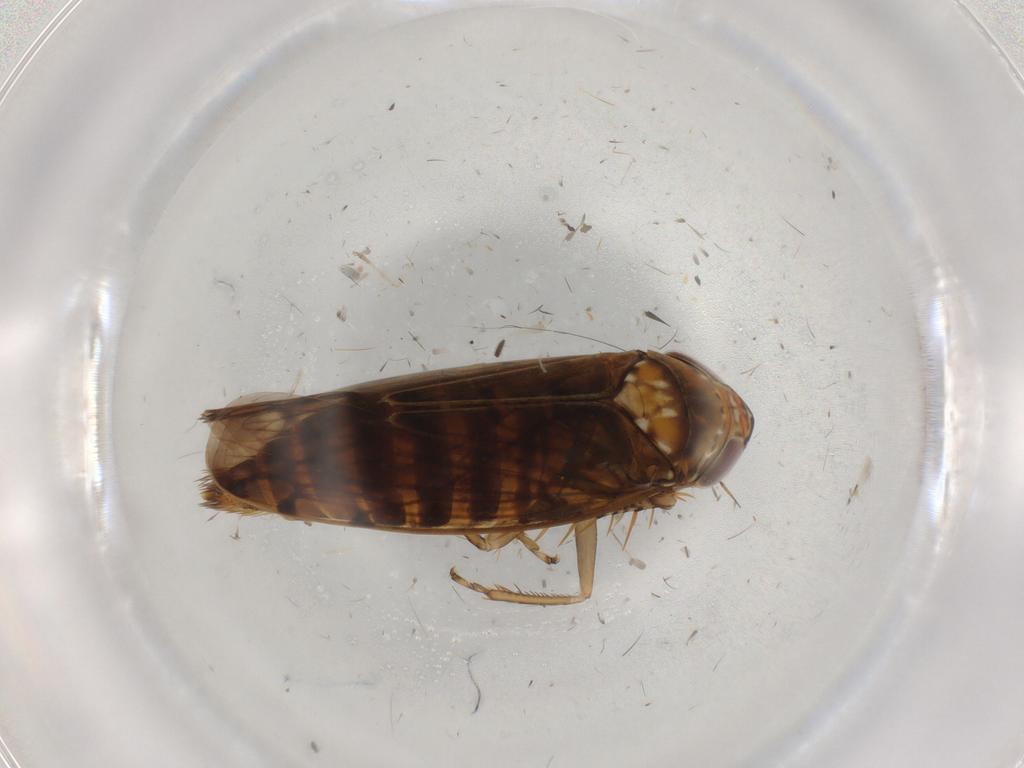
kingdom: Animalia
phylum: Arthropoda
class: Insecta
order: Hemiptera
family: Cicadellidae
